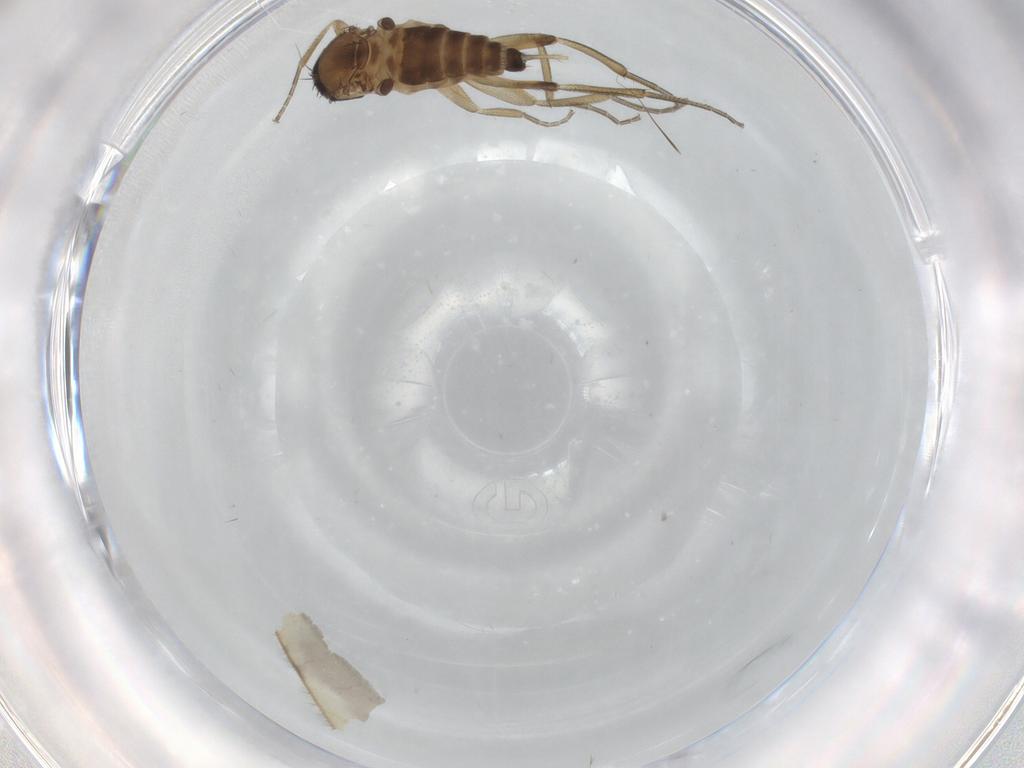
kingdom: Animalia
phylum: Arthropoda
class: Insecta
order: Diptera
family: Phoridae
